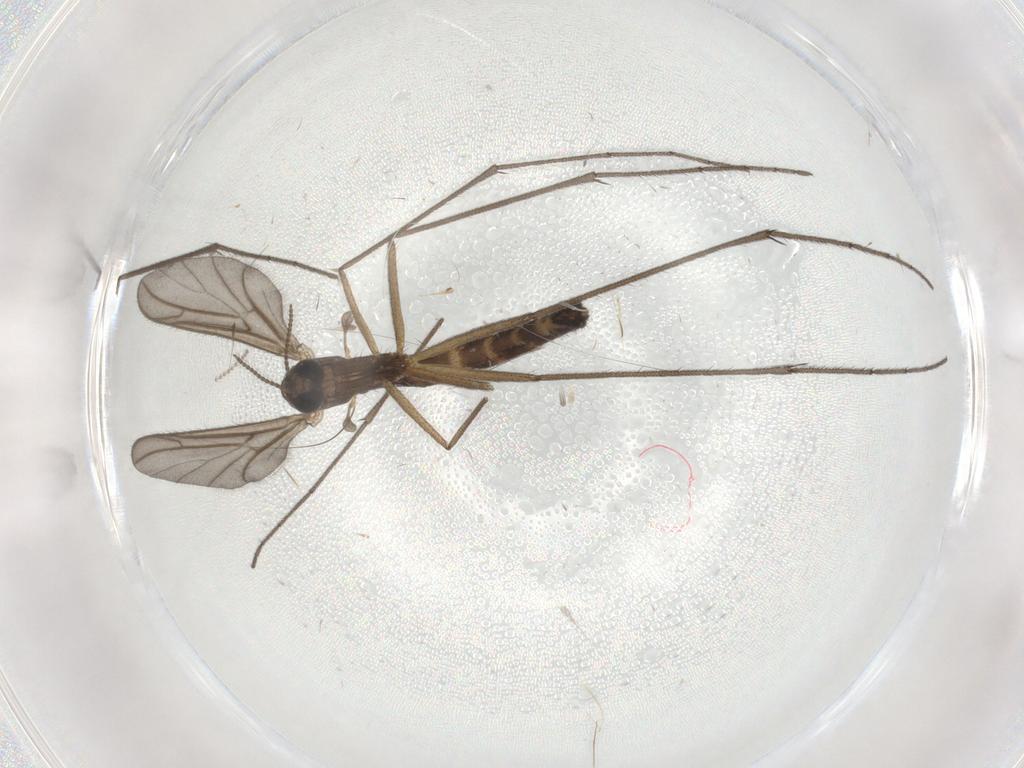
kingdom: Animalia
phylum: Arthropoda
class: Insecta
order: Diptera
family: Keroplatidae
